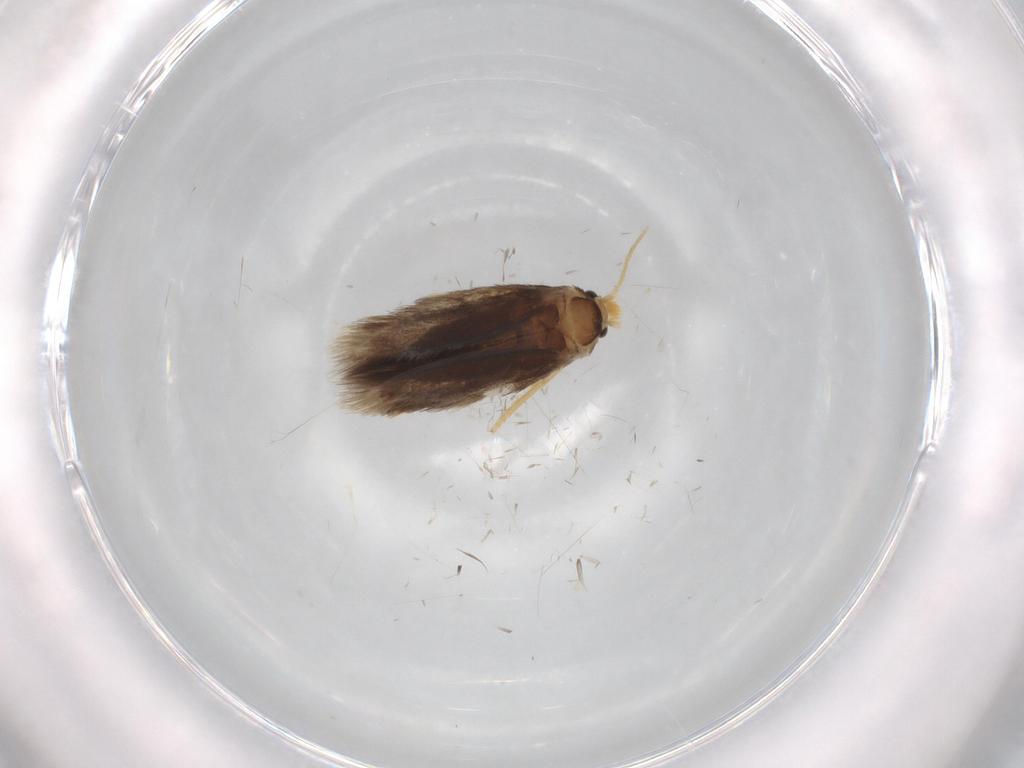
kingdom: Animalia
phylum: Arthropoda
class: Insecta
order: Lepidoptera
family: Nepticulidae
